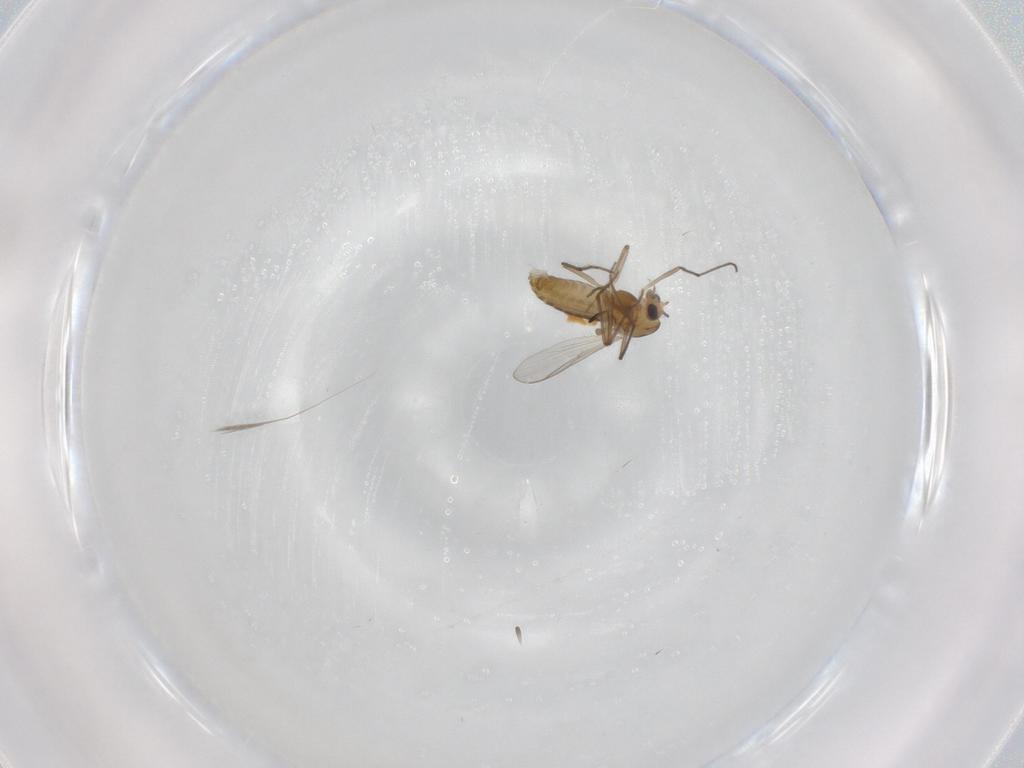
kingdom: Animalia
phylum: Arthropoda
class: Insecta
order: Diptera
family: Chironomidae
